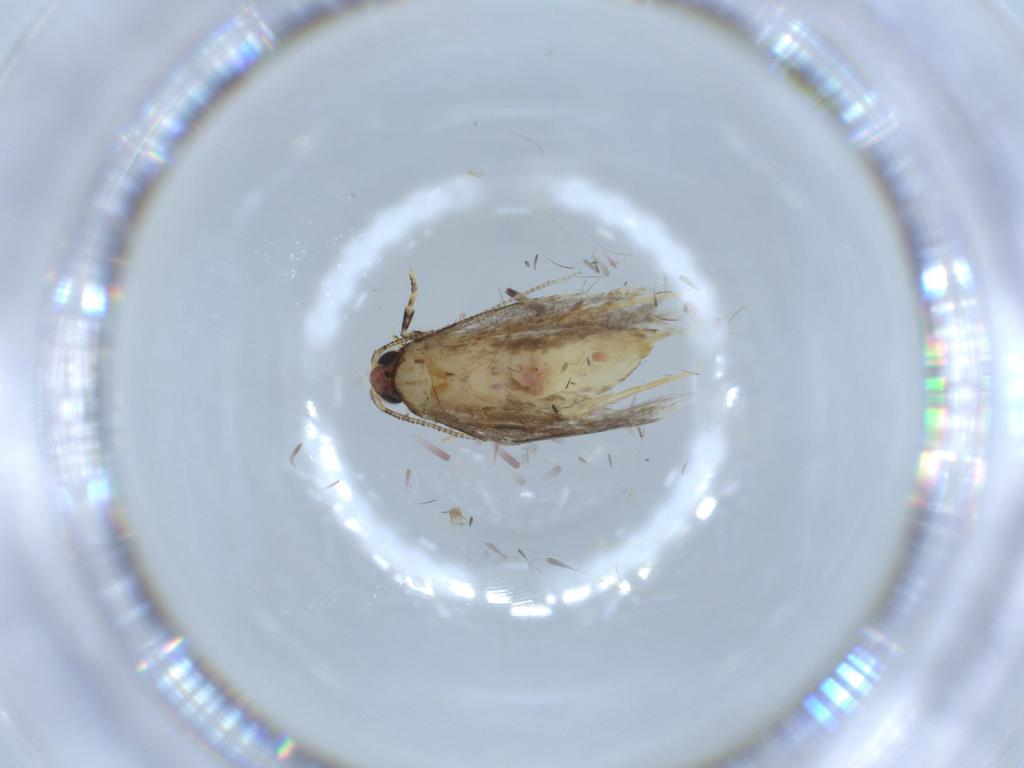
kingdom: Animalia
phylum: Arthropoda
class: Insecta
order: Lepidoptera
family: Tineidae
